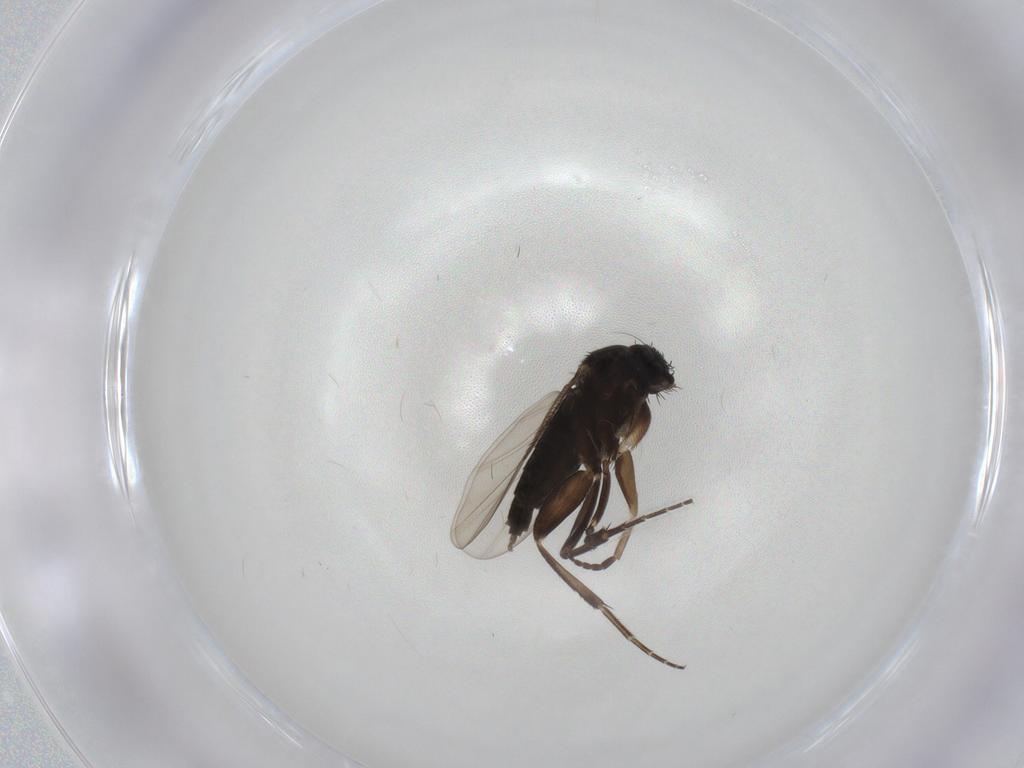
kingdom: Animalia
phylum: Arthropoda
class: Insecta
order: Diptera
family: Phoridae
